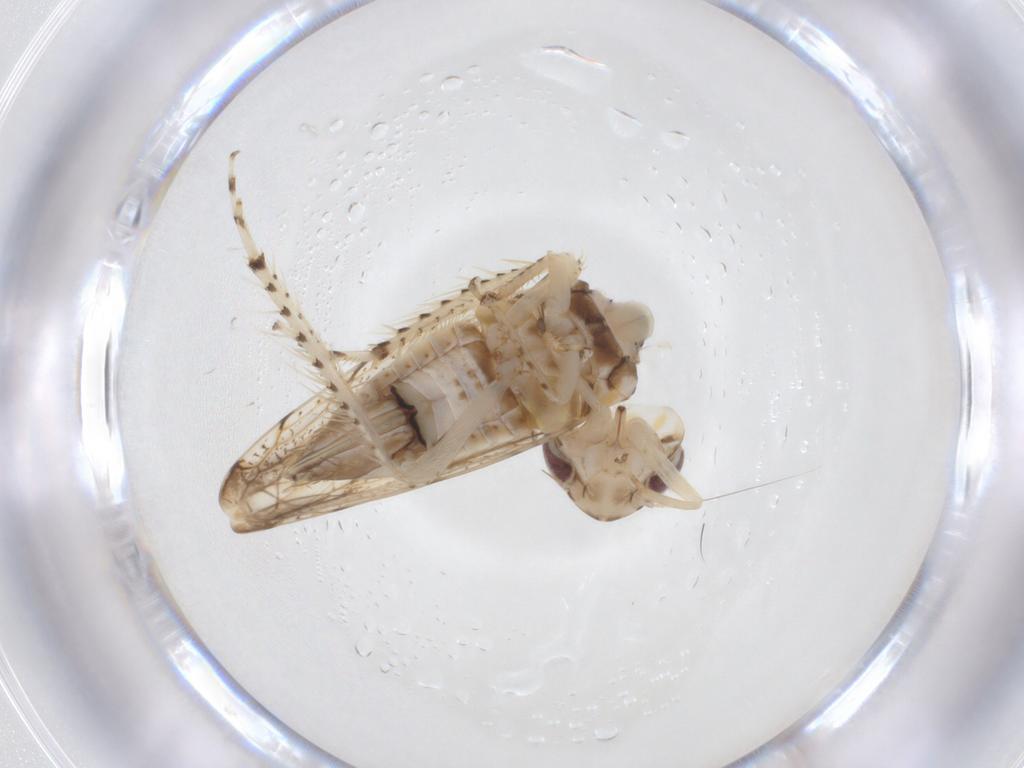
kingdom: Animalia
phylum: Arthropoda
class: Insecta
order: Hemiptera
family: Cicadellidae
